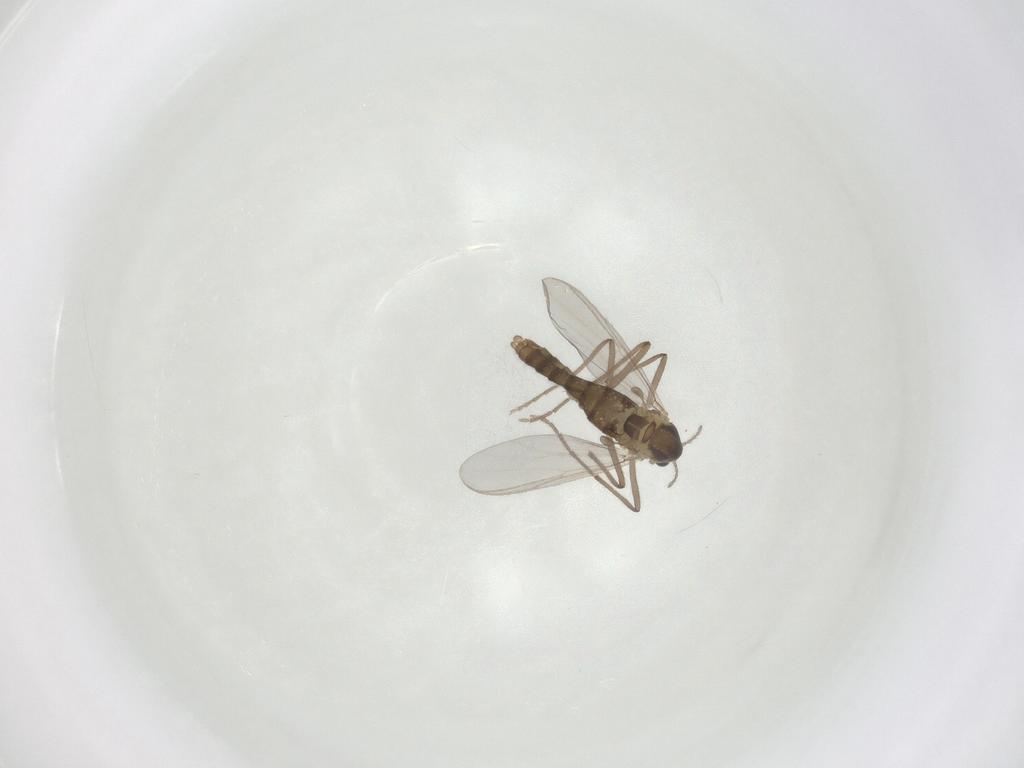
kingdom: Animalia
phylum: Arthropoda
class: Insecta
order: Diptera
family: Chironomidae
